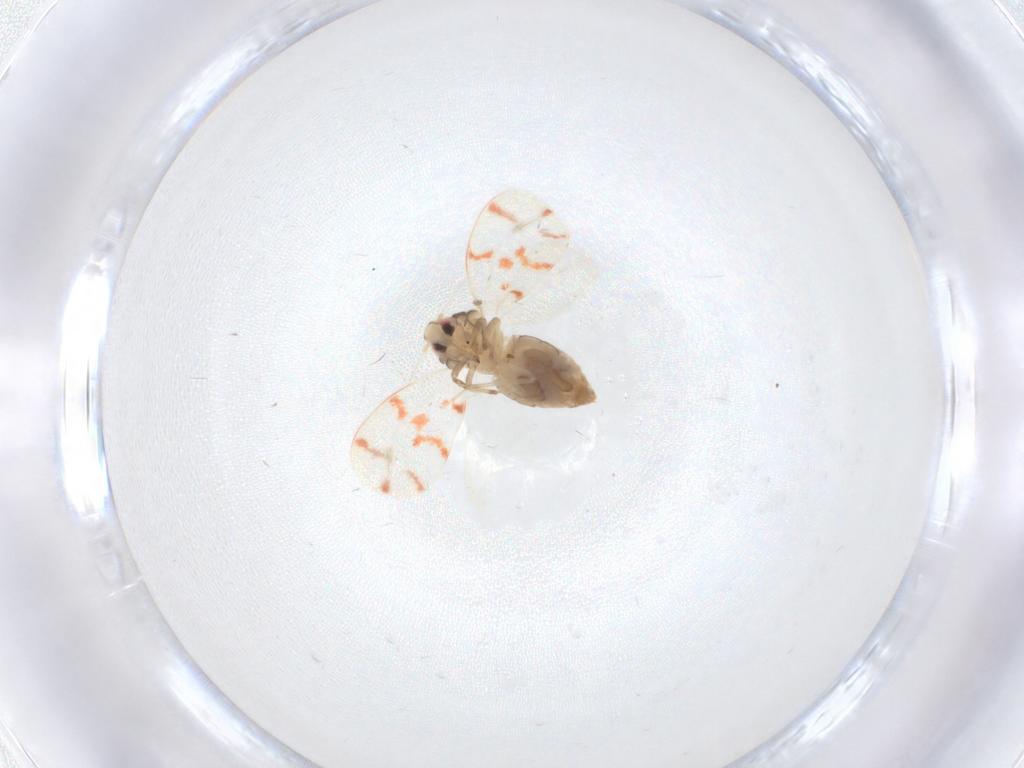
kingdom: Animalia
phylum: Arthropoda
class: Insecta
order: Hemiptera
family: Aleyrodidae
